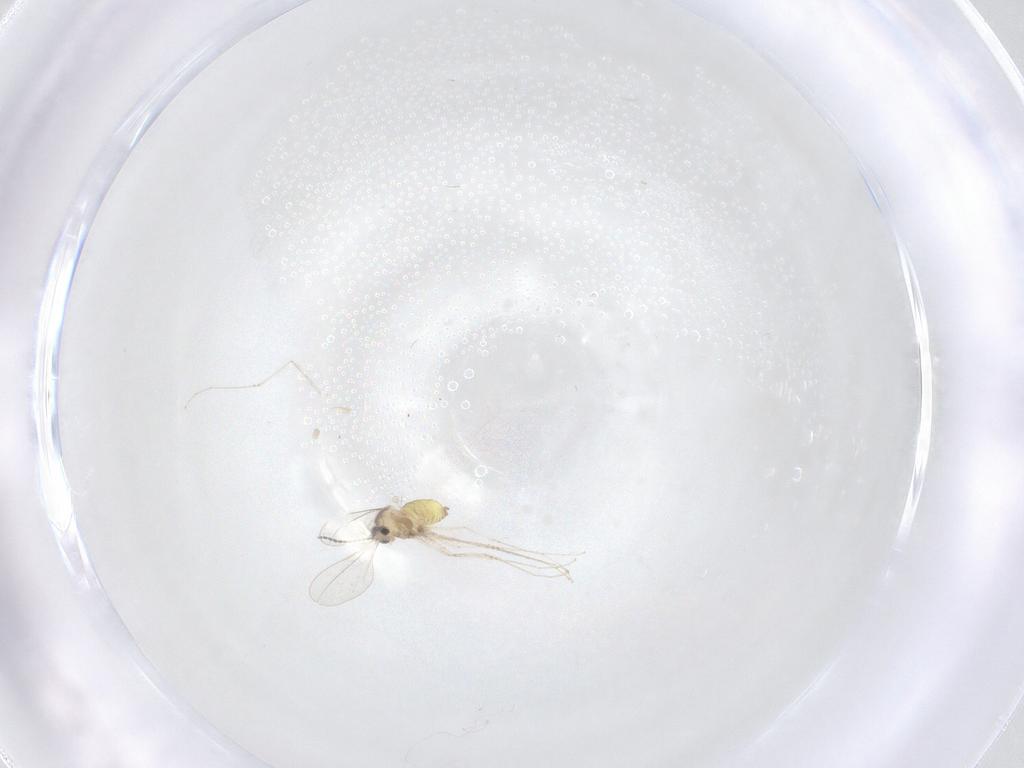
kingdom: Animalia
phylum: Arthropoda
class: Insecta
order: Diptera
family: Cecidomyiidae
